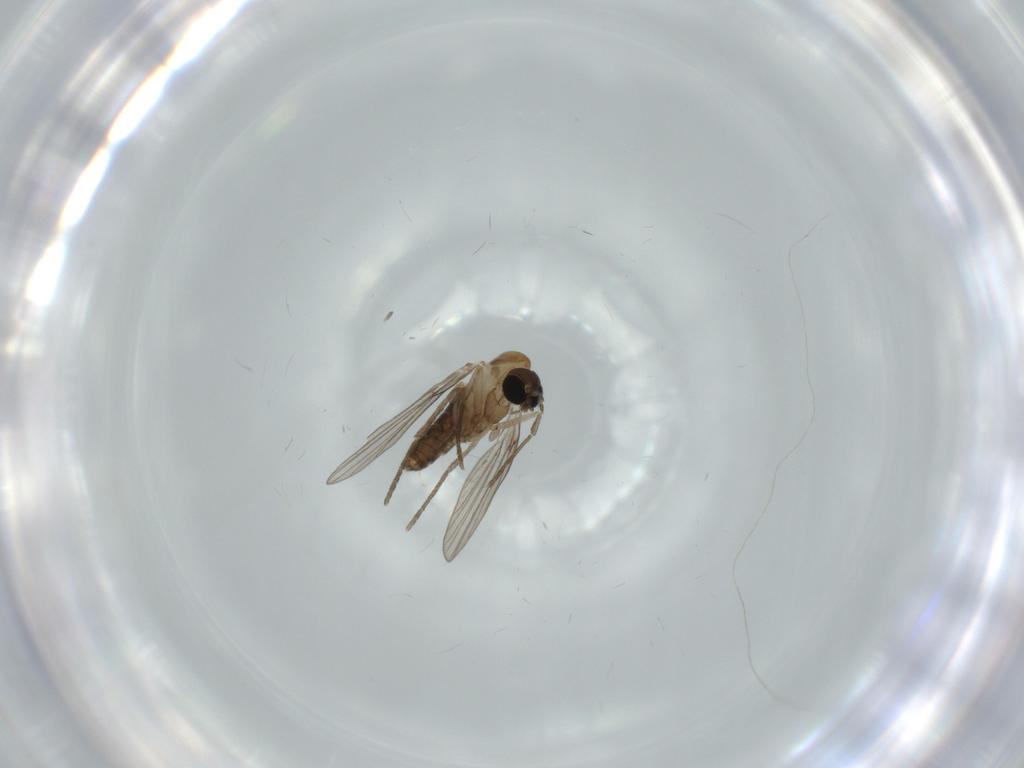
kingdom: Animalia
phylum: Arthropoda
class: Insecta
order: Diptera
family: Psychodidae
